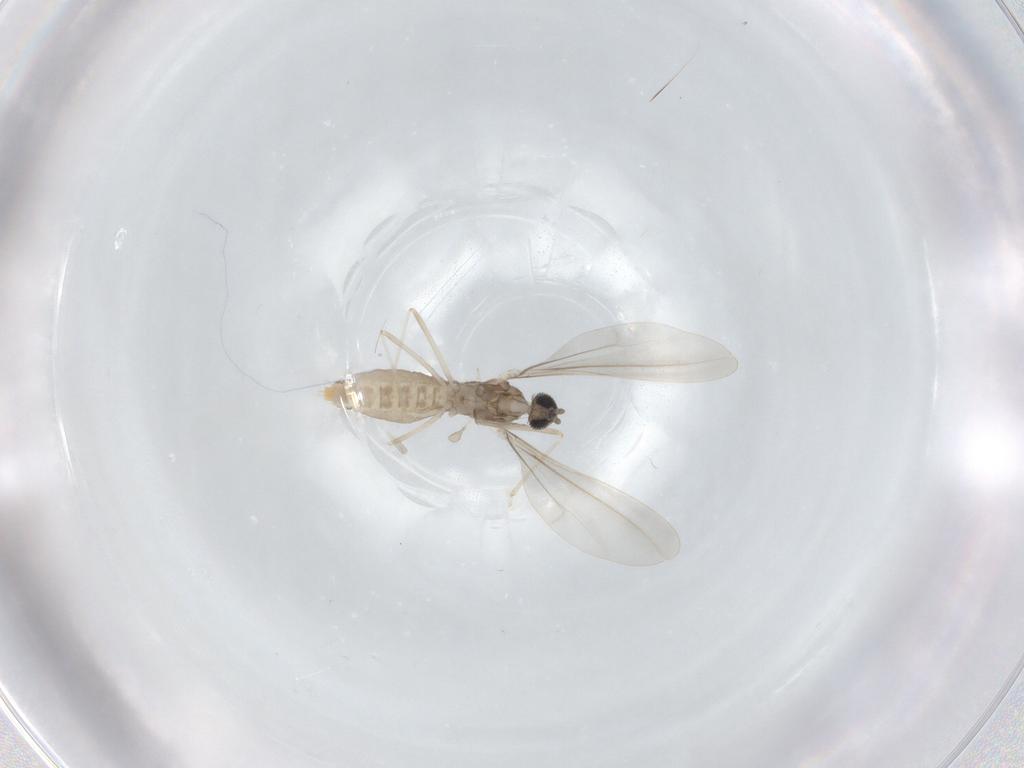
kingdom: Animalia
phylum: Arthropoda
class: Insecta
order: Diptera
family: Cecidomyiidae
